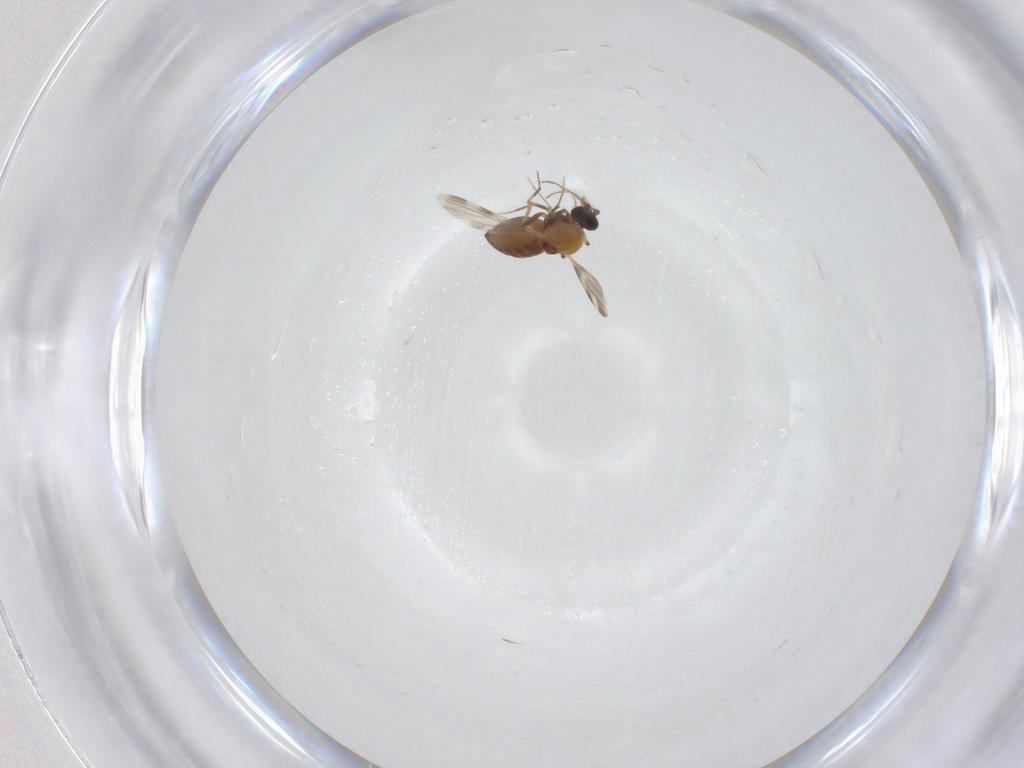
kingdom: Animalia
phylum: Arthropoda
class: Insecta
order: Diptera
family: Cecidomyiidae
